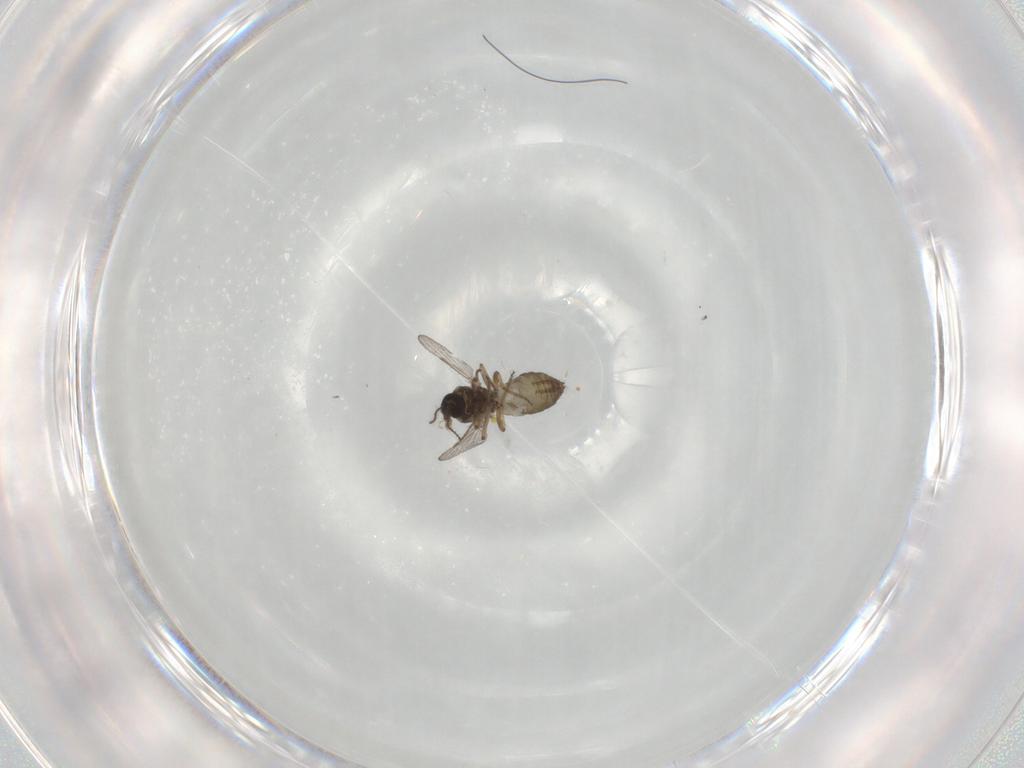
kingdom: Animalia
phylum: Arthropoda
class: Insecta
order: Diptera
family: Ceratopogonidae
